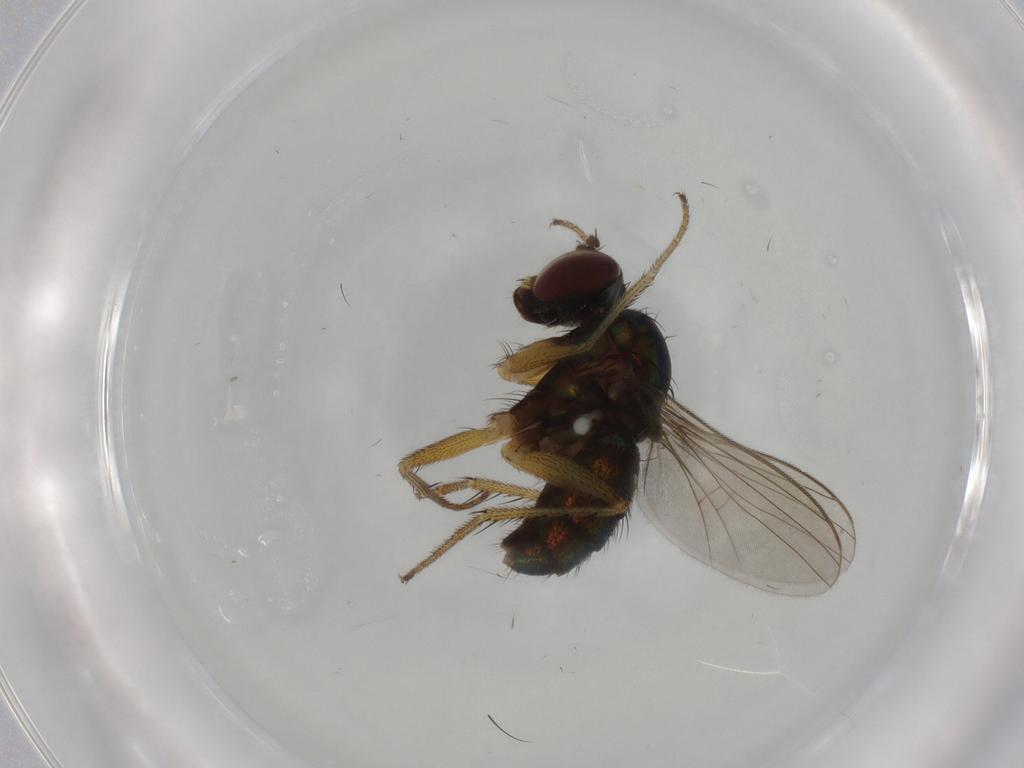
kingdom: Animalia
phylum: Arthropoda
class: Insecta
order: Diptera
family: Dolichopodidae
